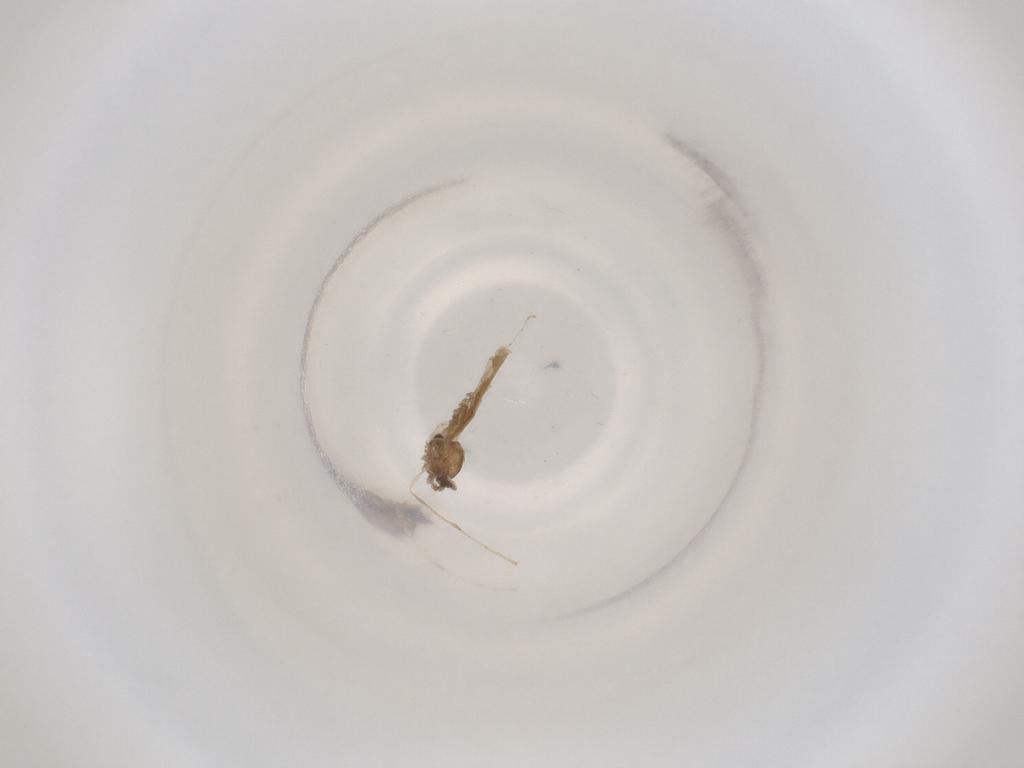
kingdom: Animalia
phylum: Arthropoda
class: Insecta
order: Diptera
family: Cecidomyiidae
